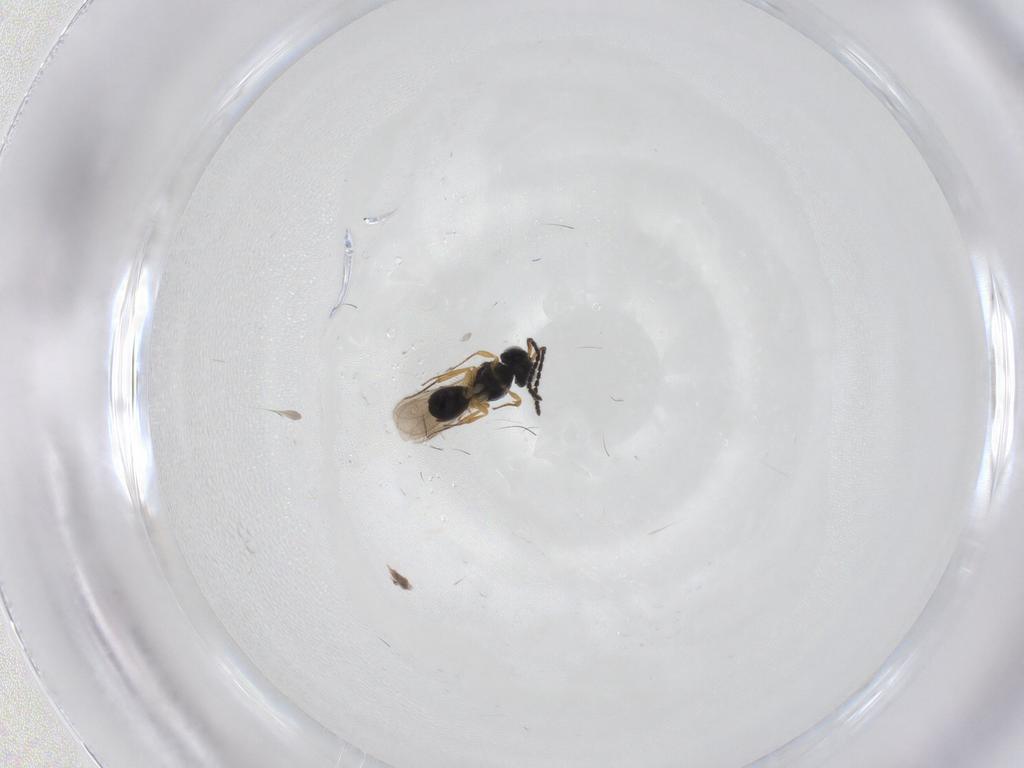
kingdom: Animalia
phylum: Arthropoda
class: Insecta
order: Hymenoptera
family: Scelionidae
